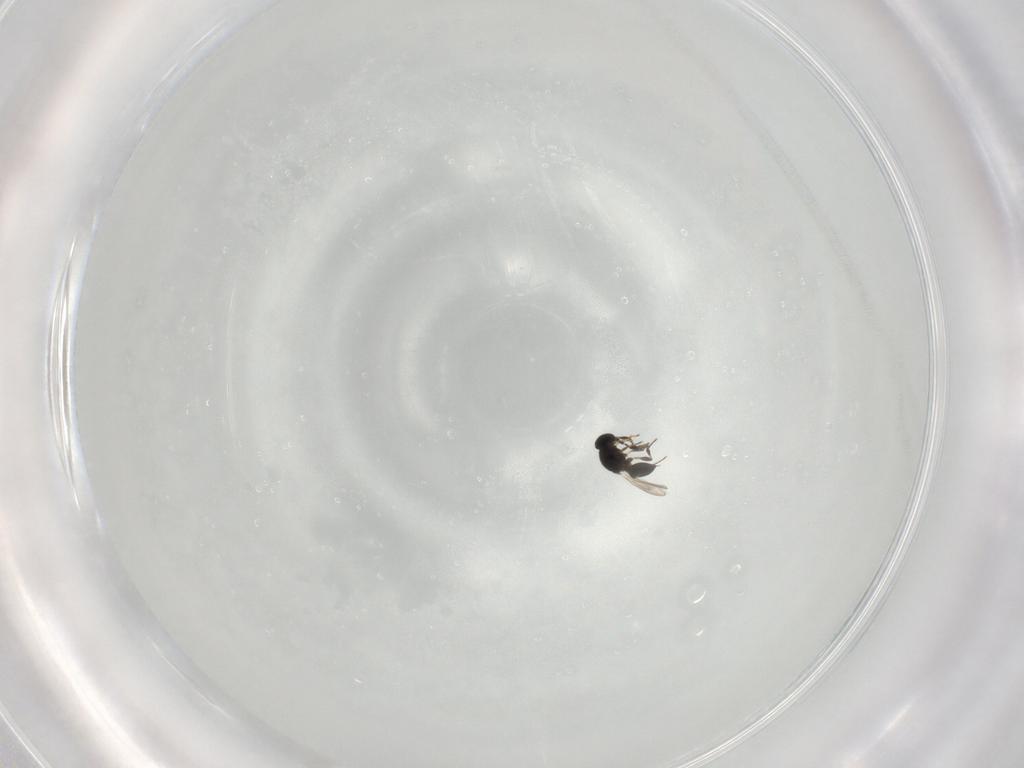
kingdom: Animalia
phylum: Arthropoda
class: Insecta
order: Hymenoptera
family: Platygastridae
